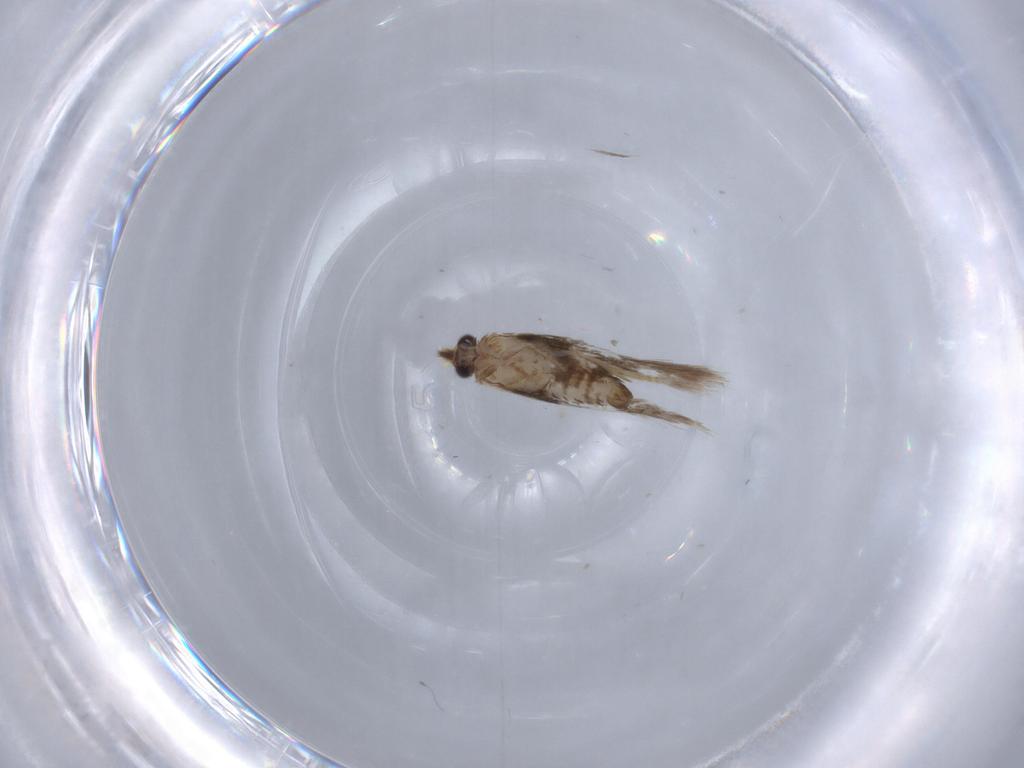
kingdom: Animalia
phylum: Arthropoda
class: Insecta
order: Lepidoptera
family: Nepticulidae
